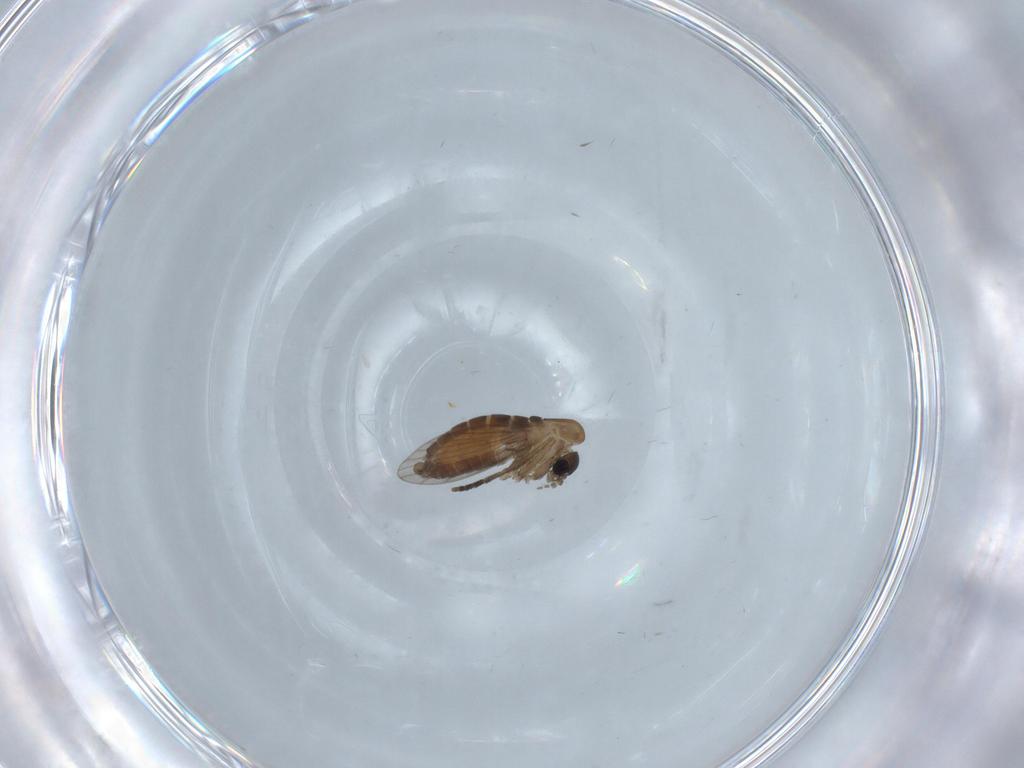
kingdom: Animalia
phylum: Arthropoda
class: Insecta
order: Diptera
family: Psychodidae
